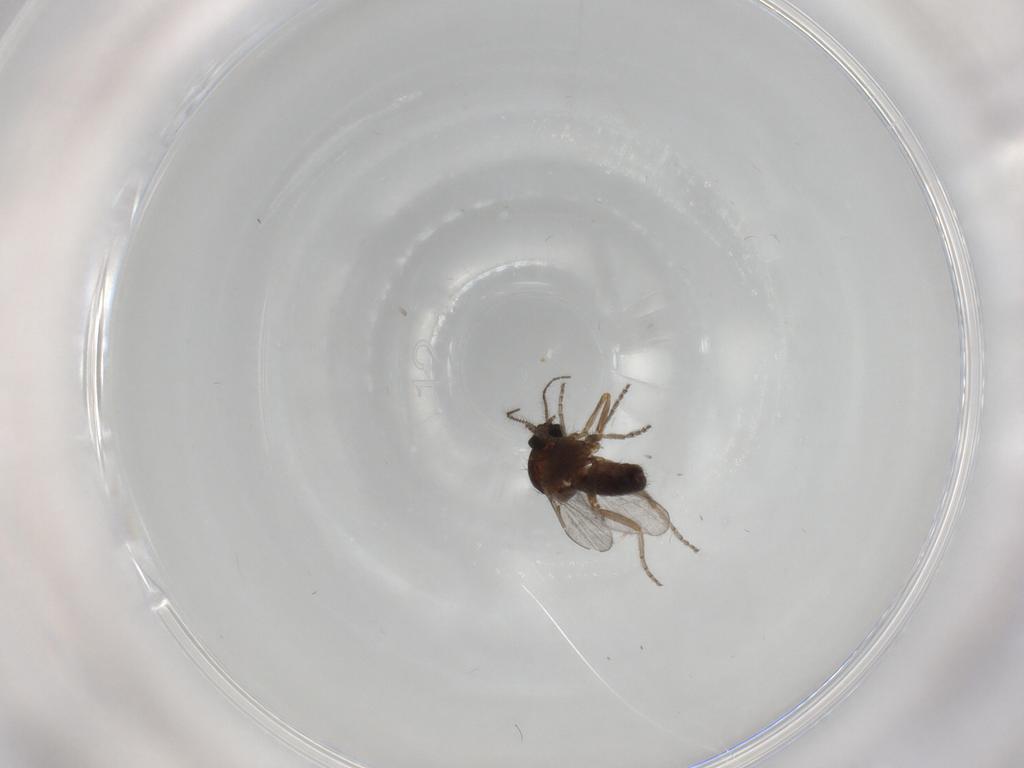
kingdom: Animalia
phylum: Arthropoda
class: Insecta
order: Diptera
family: Ceratopogonidae
